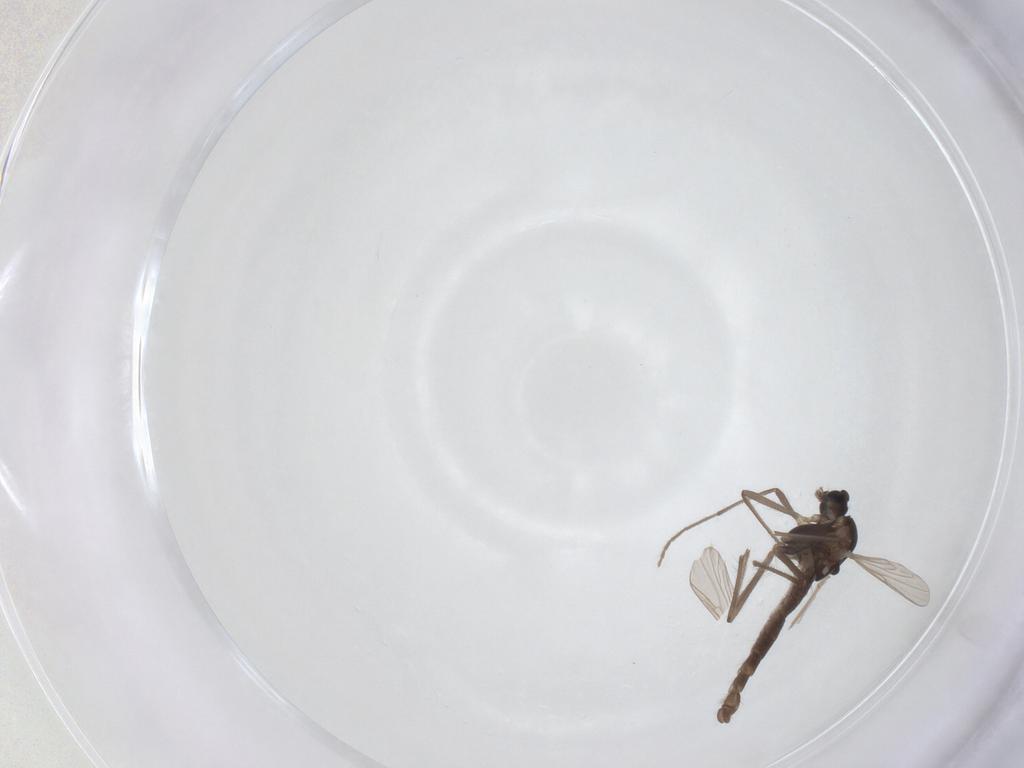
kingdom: Animalia
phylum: Arthropoda
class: Insecta
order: Diptera
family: Chironomidae
